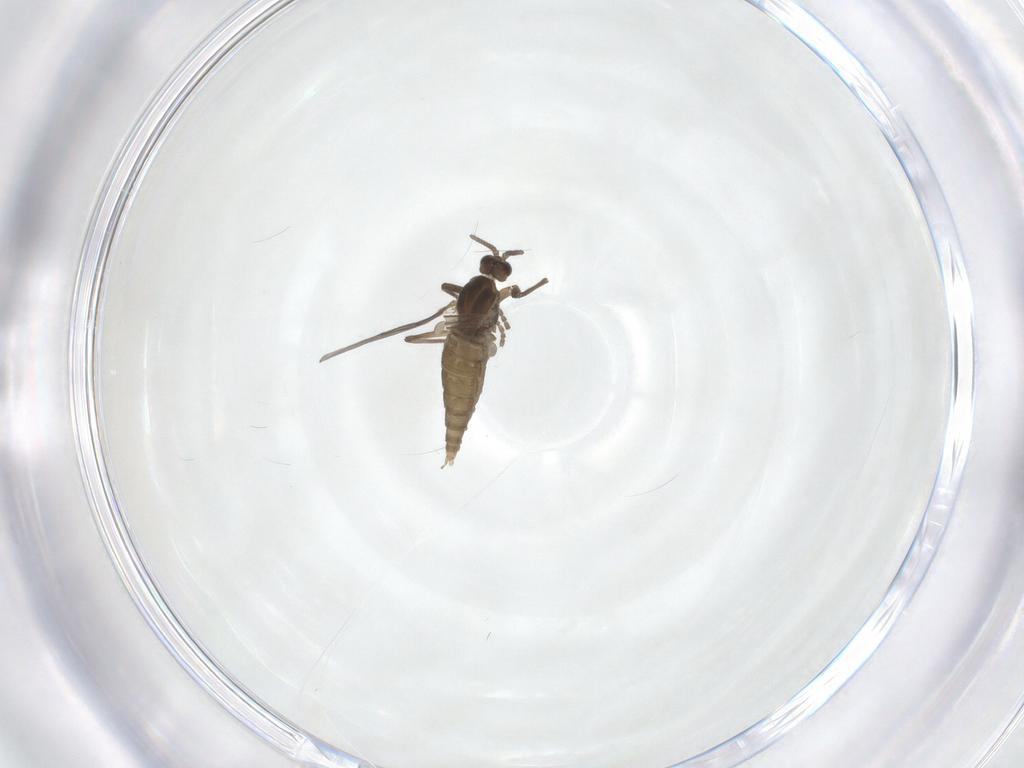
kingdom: Animalia
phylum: Arthropoda
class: Insecta
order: Diptera
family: Cecidomyiidae
